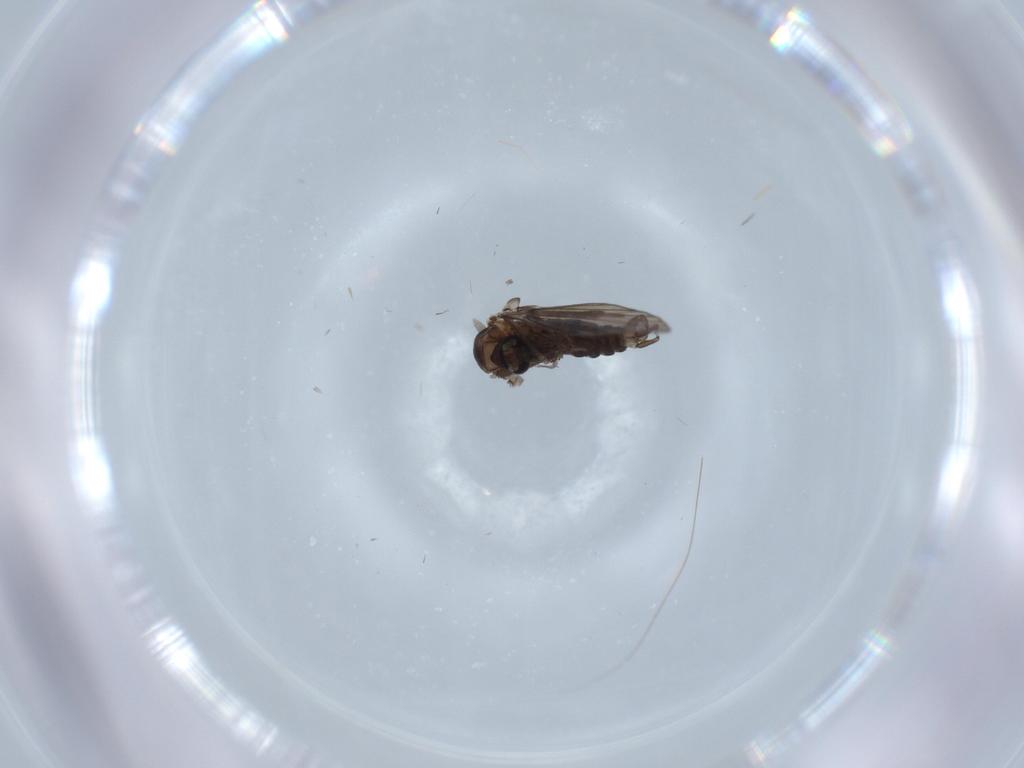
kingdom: Animalia
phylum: Arthropoda
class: Insecta
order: Diptera
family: Psychodidae
